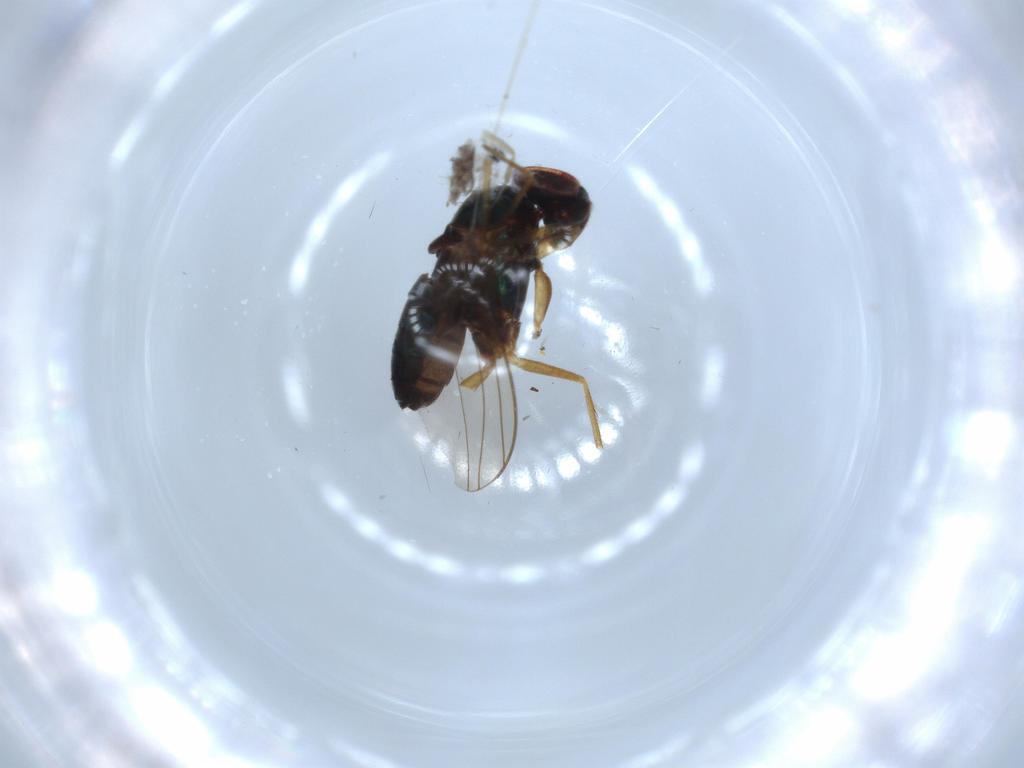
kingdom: Animalia
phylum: Arthropoda
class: Insecta
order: Diptera
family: Cecidomyiidae
